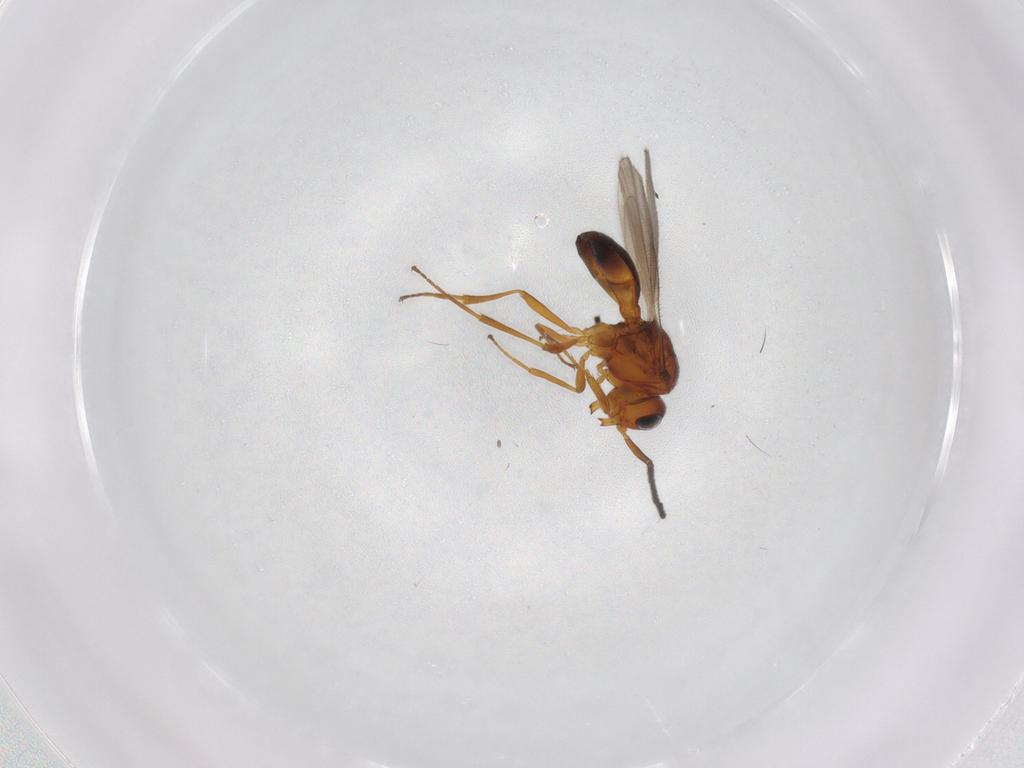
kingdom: Animalia
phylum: Arthropoda
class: Insecta
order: Hymenoptera
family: Scelionidae
